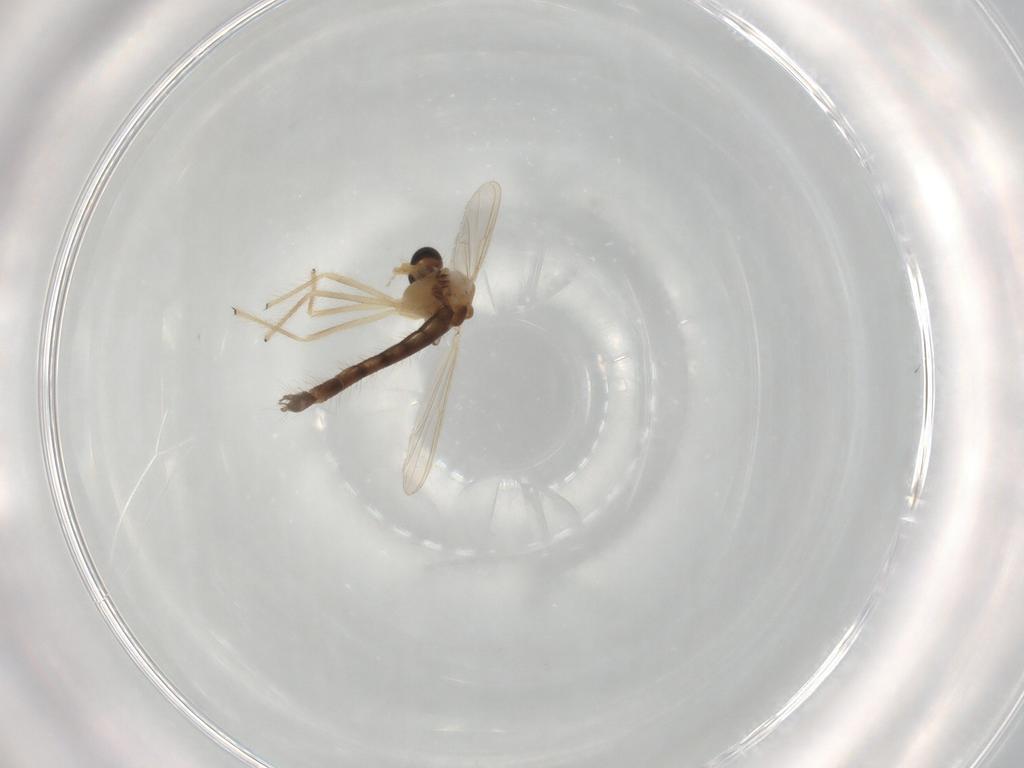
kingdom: Animalia
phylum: Arthropoda
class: Insecta
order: Diptera
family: Chironomidae
